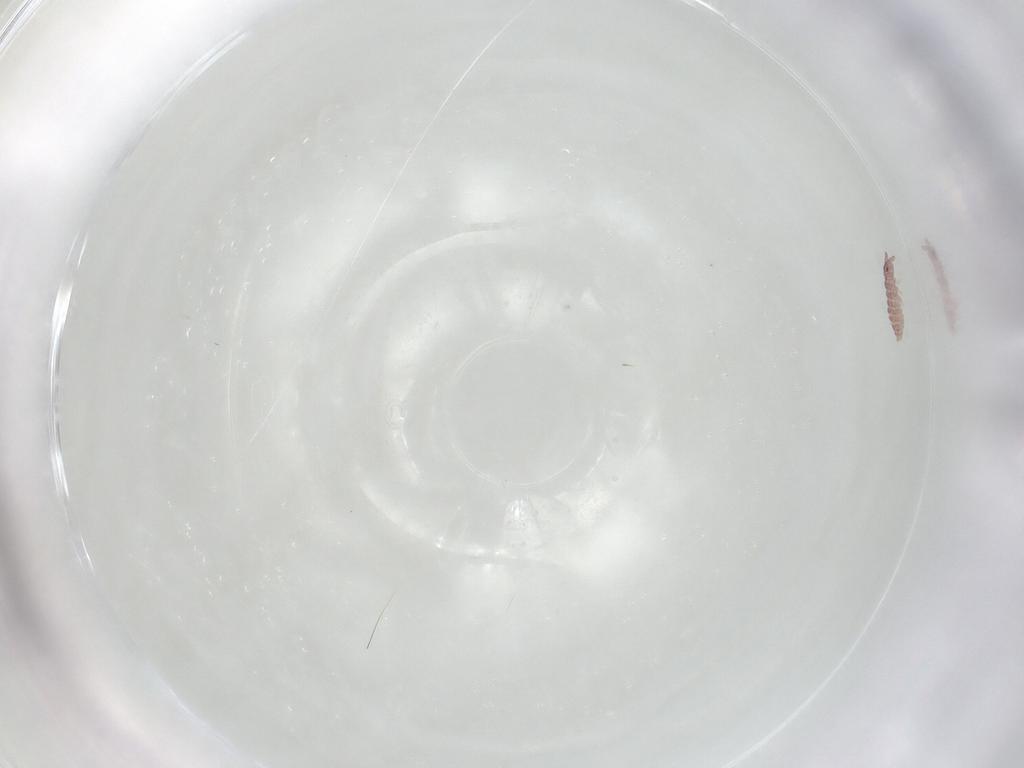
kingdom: Animalia
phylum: Arthropoda
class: Collembola
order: Poduromorpha
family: Hypogastruridae
